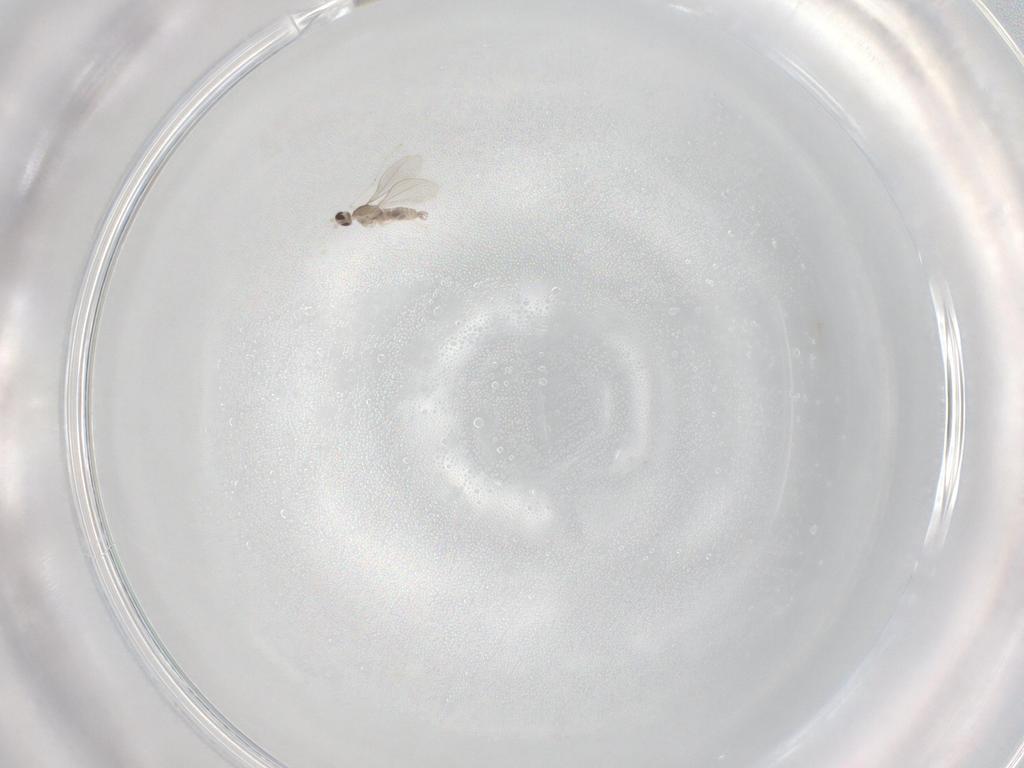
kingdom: Animalia
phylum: Arthropoda
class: Insecta
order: Diptera
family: Cecidomyiidae
